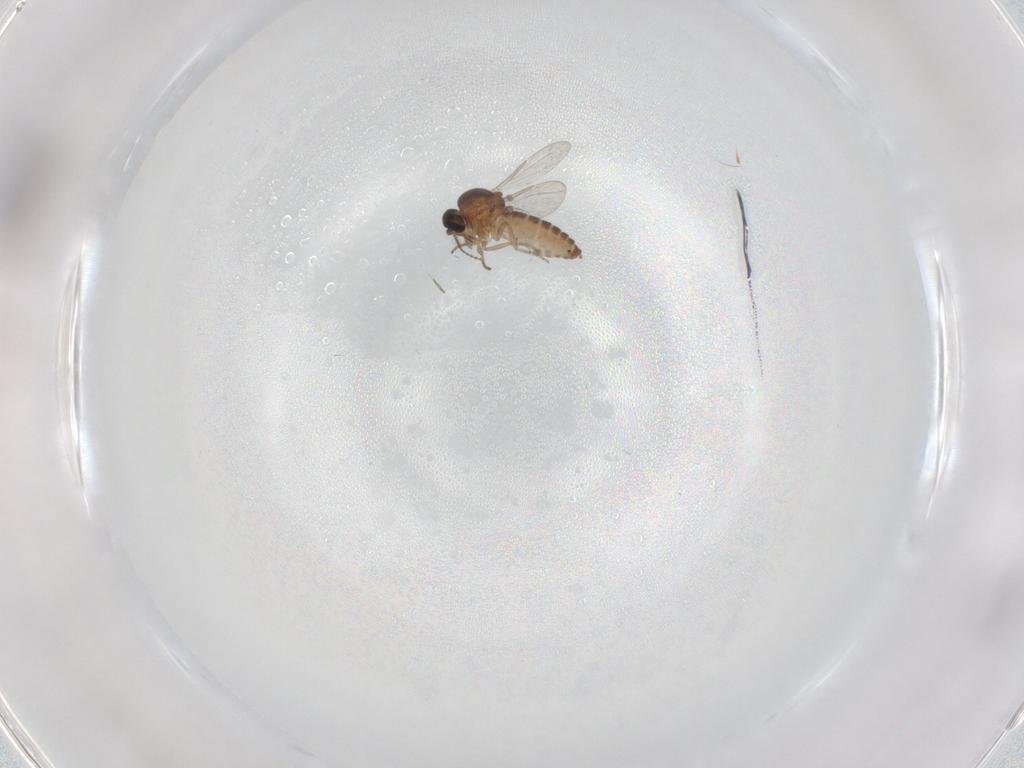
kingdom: Animalia
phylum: Arthropoda
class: Insecta
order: Diptera
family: Ceratopogonidae
